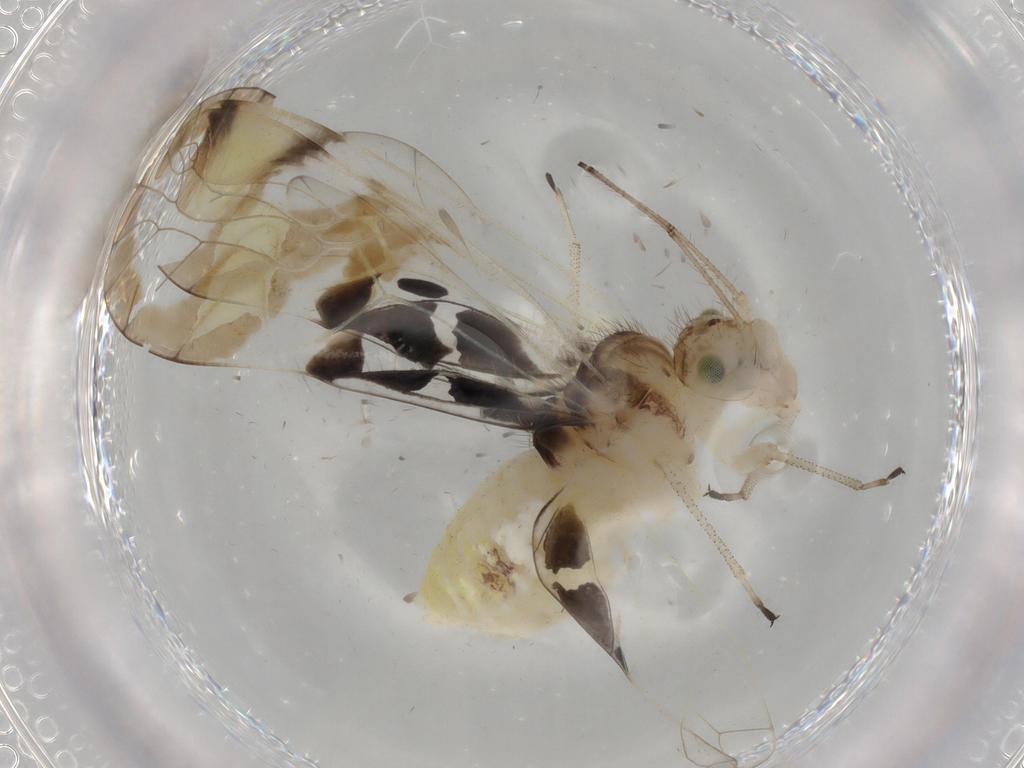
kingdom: Animalia
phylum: Arthropoda
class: Insecta
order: Psocodea
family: Amphipsocidae
